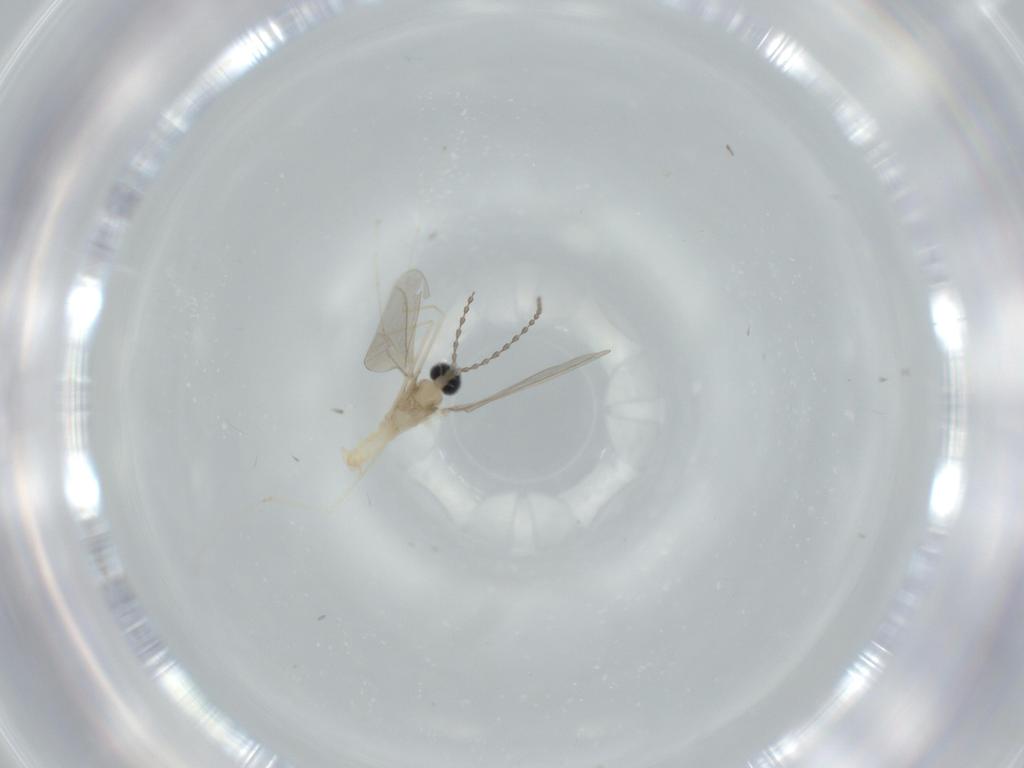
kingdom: Animalia
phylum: Arthropoda
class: Insecta
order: Diptera
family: Cecidomyiidae
